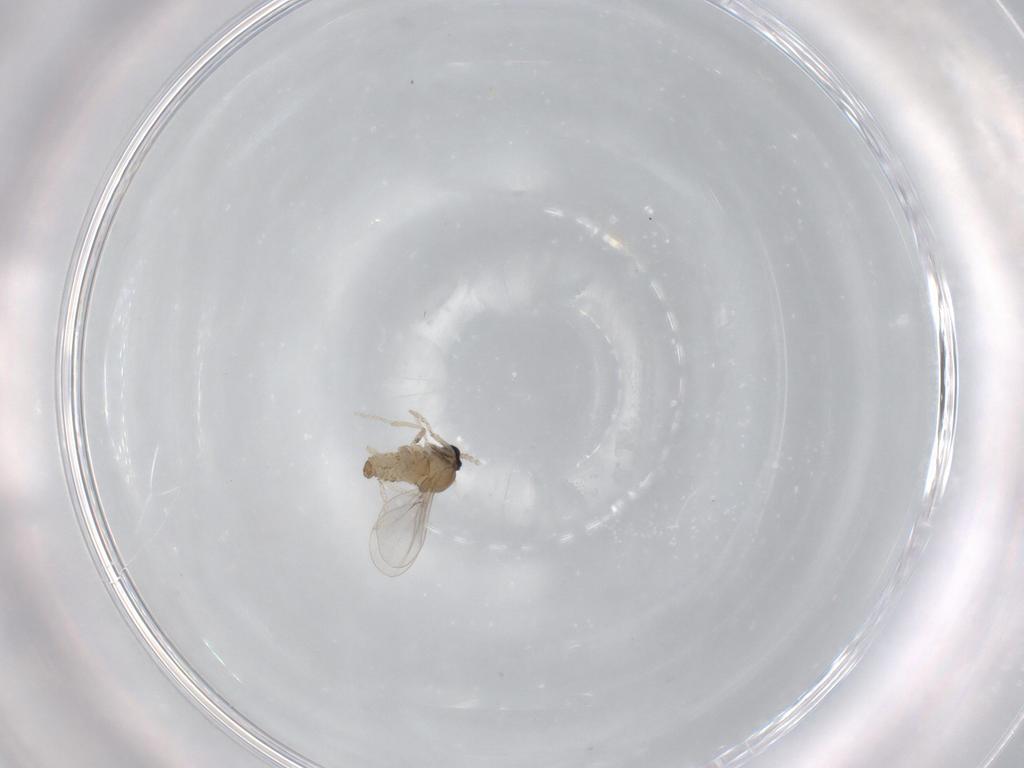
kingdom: Animalia
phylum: Arthropoda
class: Insecta
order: Diptera
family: Cecidomyiidae
